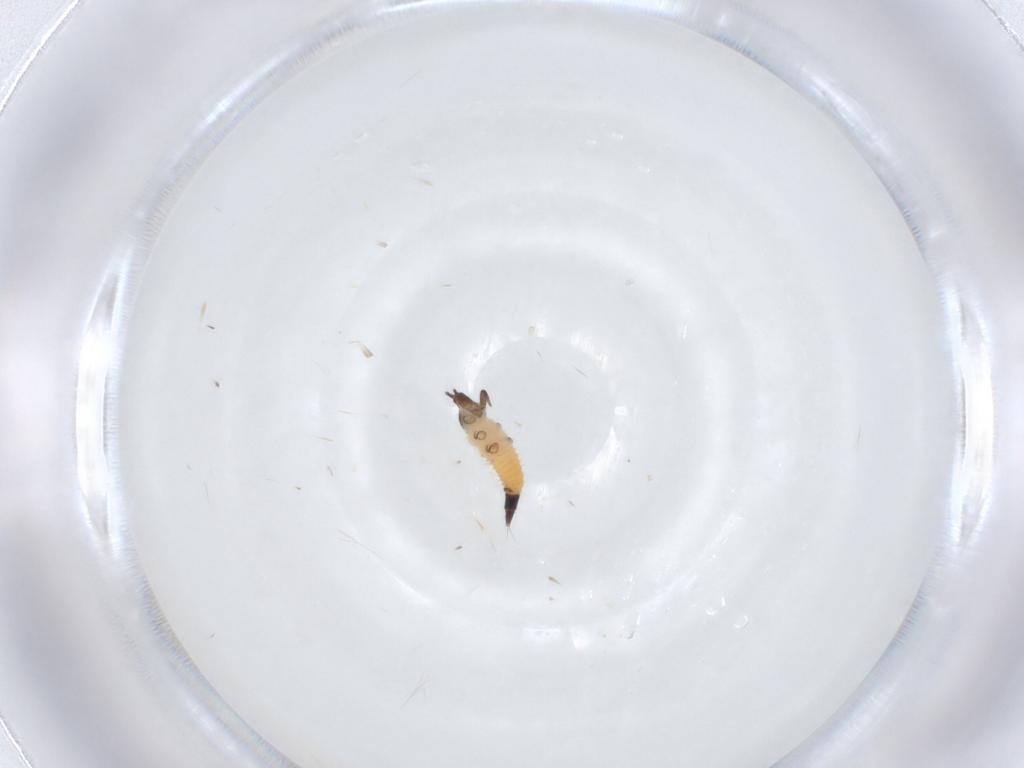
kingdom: Animalia
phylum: Arthropoda
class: Insecta
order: Thysanoptera
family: Phlaeothripidae
